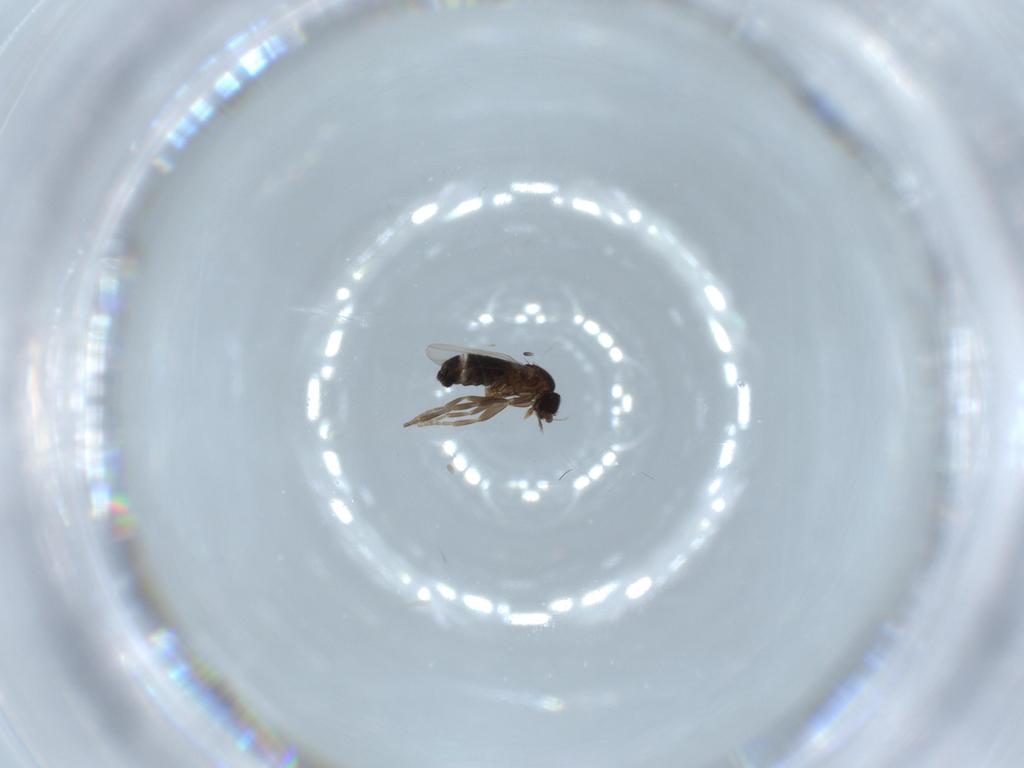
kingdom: Animalia
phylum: Arthropoda
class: Insecta
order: Diptera
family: Phoridae
